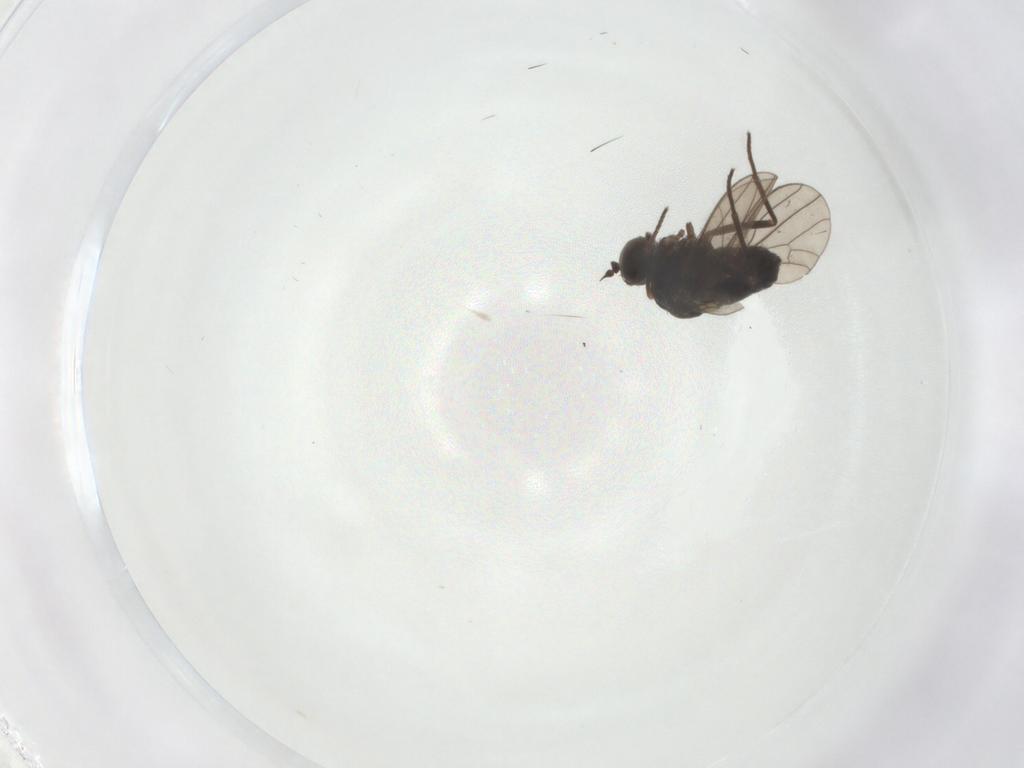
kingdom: Animalia
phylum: Arthropoda
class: Insecta
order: Diptera
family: Dolichopodidae
